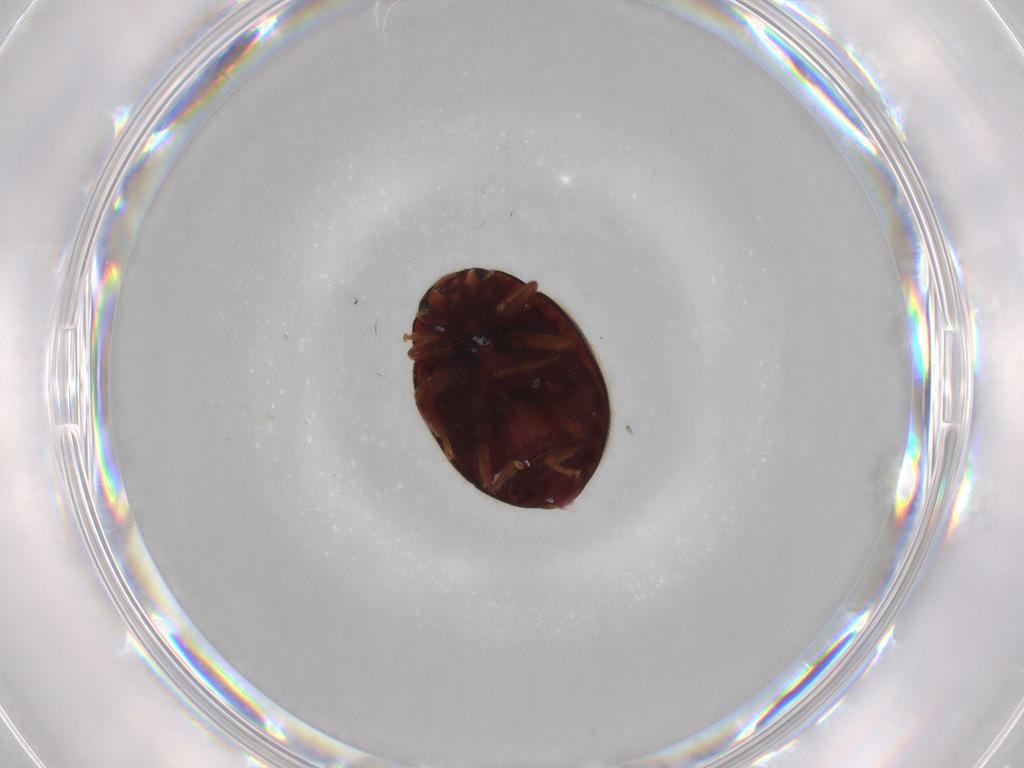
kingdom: Animalia
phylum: Arthropoda
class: Insecta
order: Coleoptera
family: Coccinellidae
